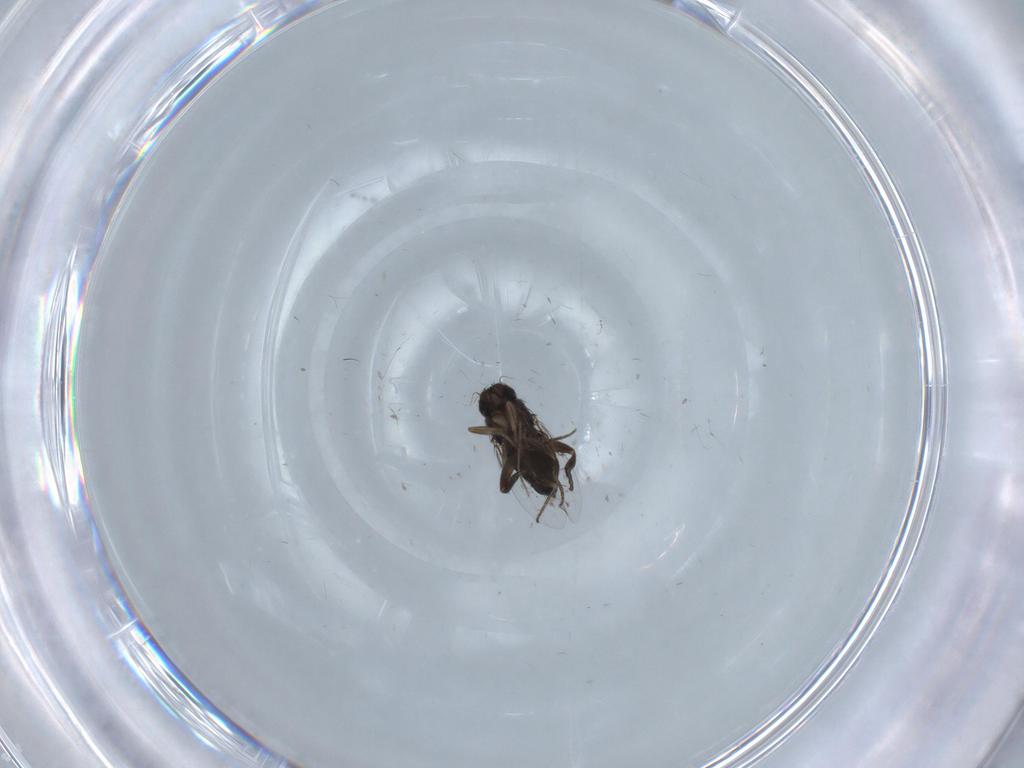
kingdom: Animalia
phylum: Arthropoda
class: Insecta
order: Diptera
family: Phoridae
